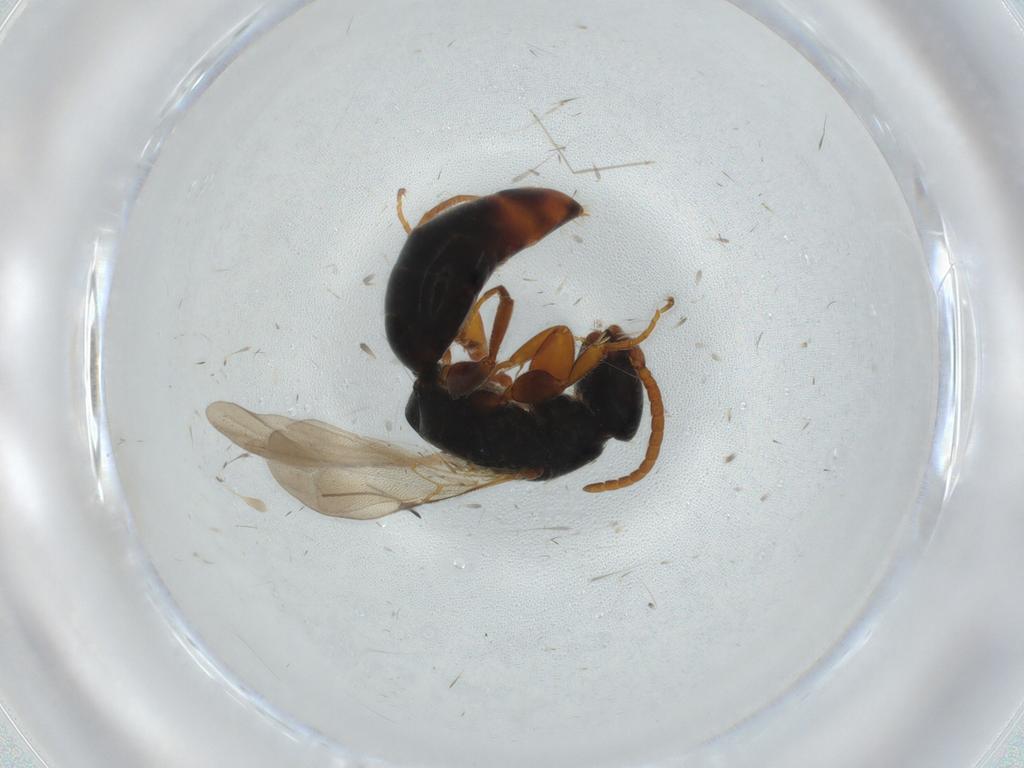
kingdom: Animalia
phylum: Arthropoda
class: Insecta
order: Hymenoptera
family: Bethylidae
